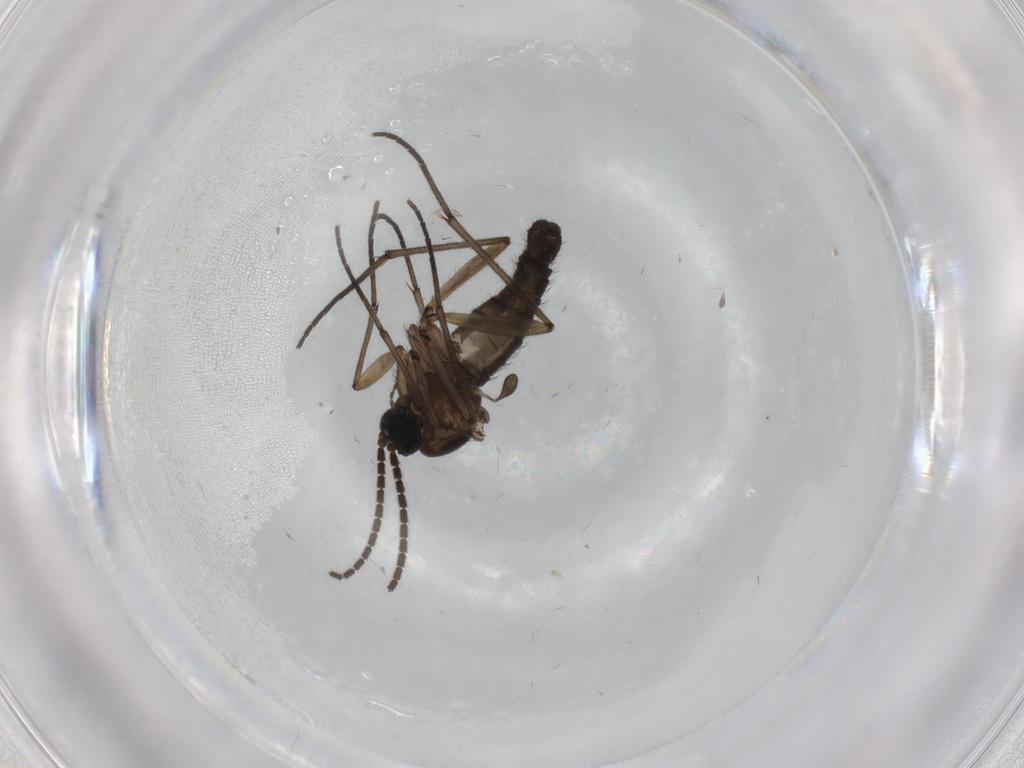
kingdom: Animalia
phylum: Arthropoda
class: Insecta
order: Diptera
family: Sciaridae
